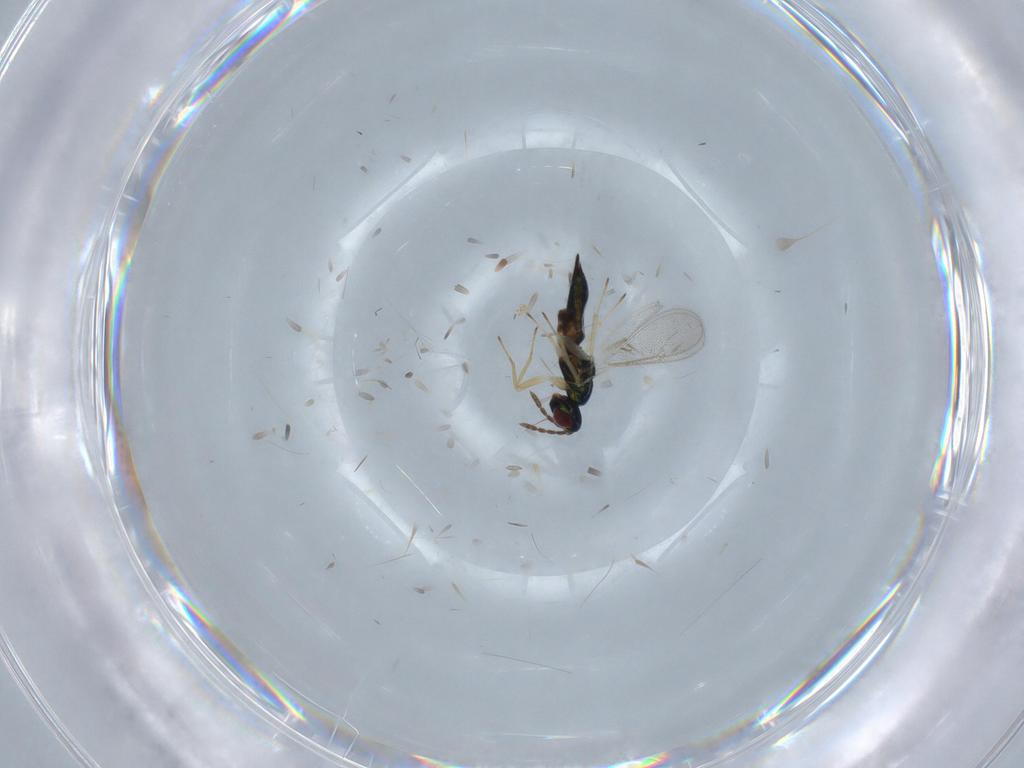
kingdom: Animalia
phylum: Arthropoda
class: Insecta
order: Hymenoptera
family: Eulophidae
